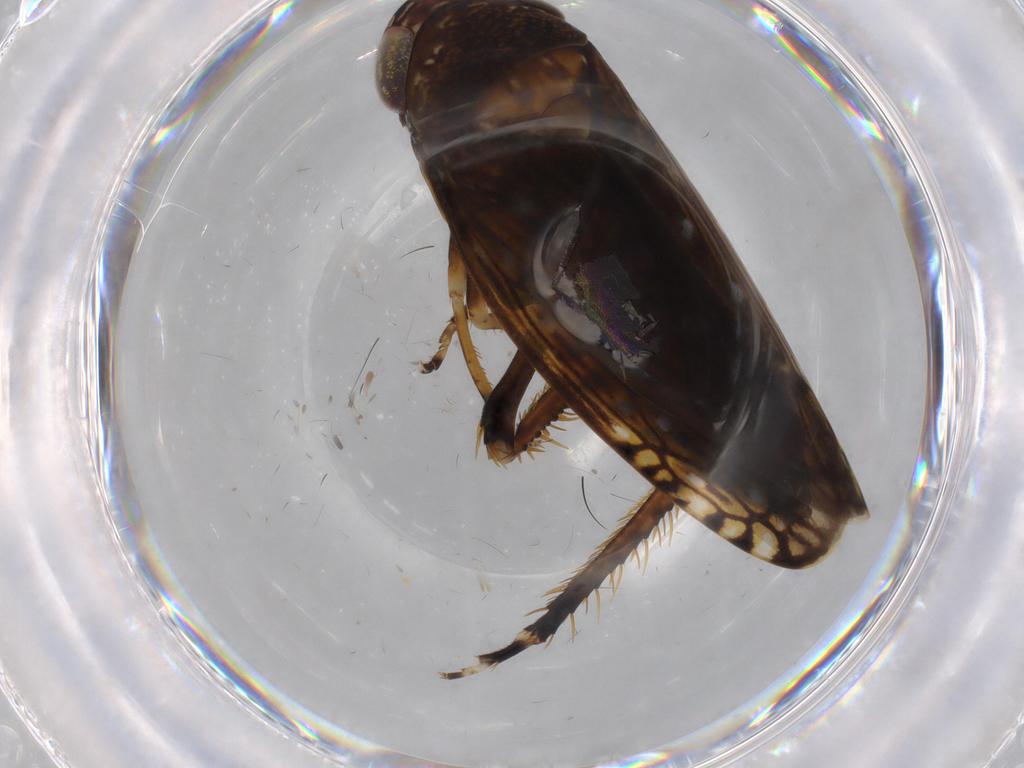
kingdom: Animalia
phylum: Arthropoda
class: Insecta
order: Hemiptera
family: Cicadellidae
